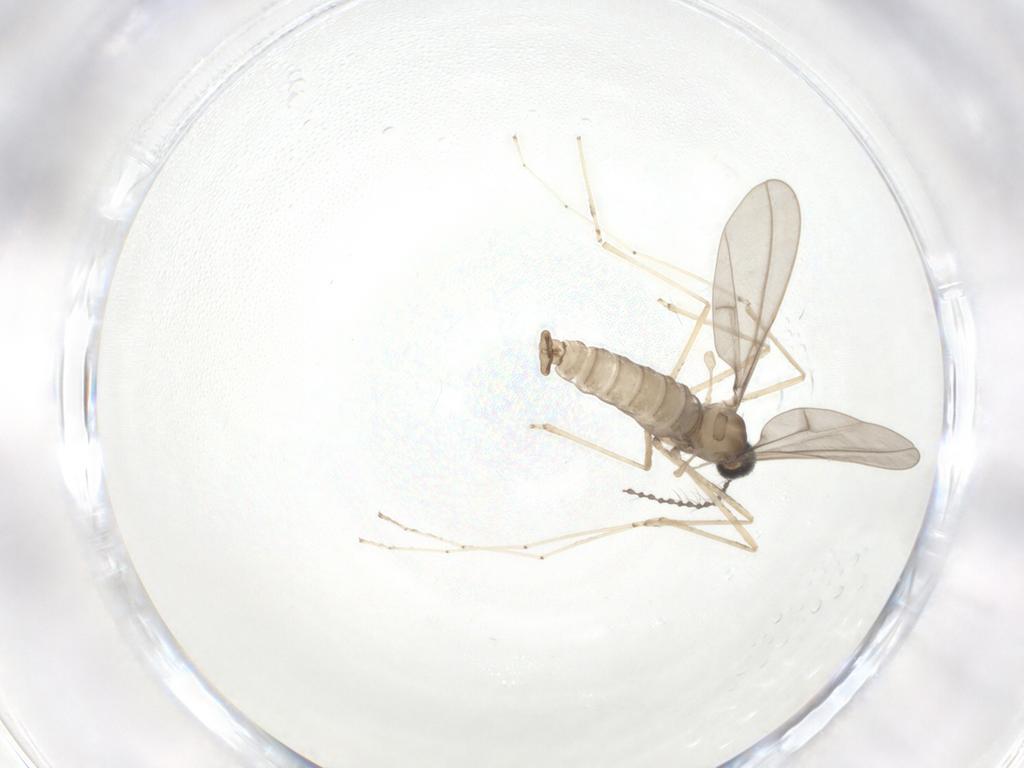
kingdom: Animalia
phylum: Arthropoda
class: Insecta
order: Diptera
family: Cecidomyiidae
